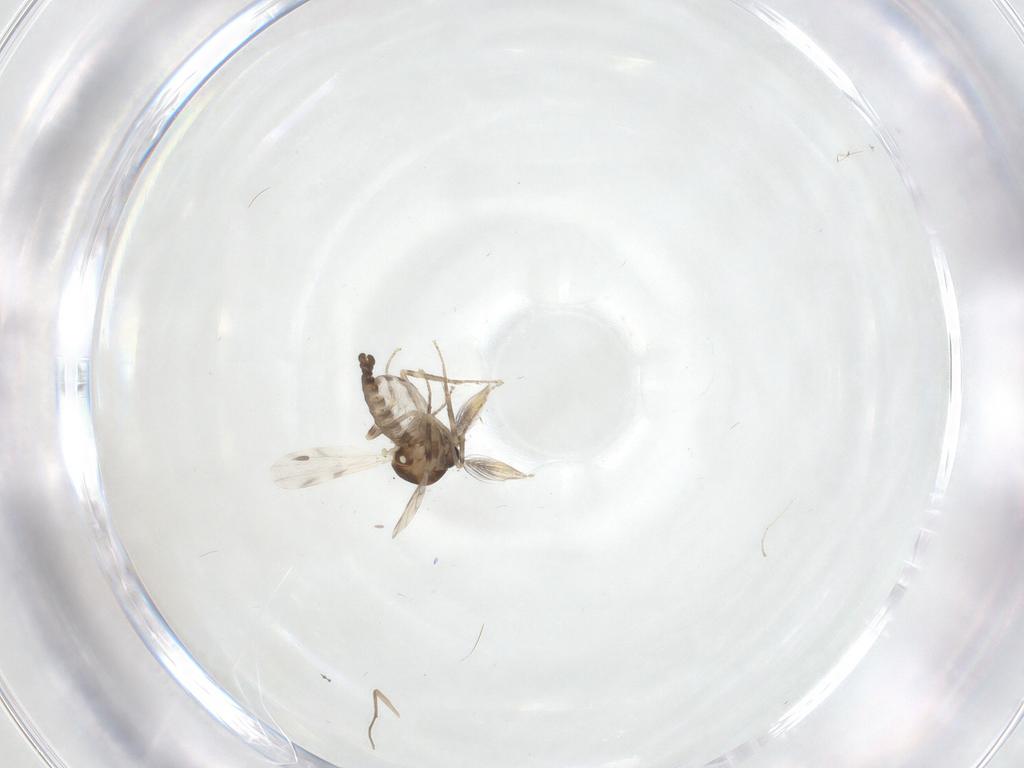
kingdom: Animalia
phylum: Arthropoda
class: Insecta
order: Diptera
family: Ceratopogonidae
